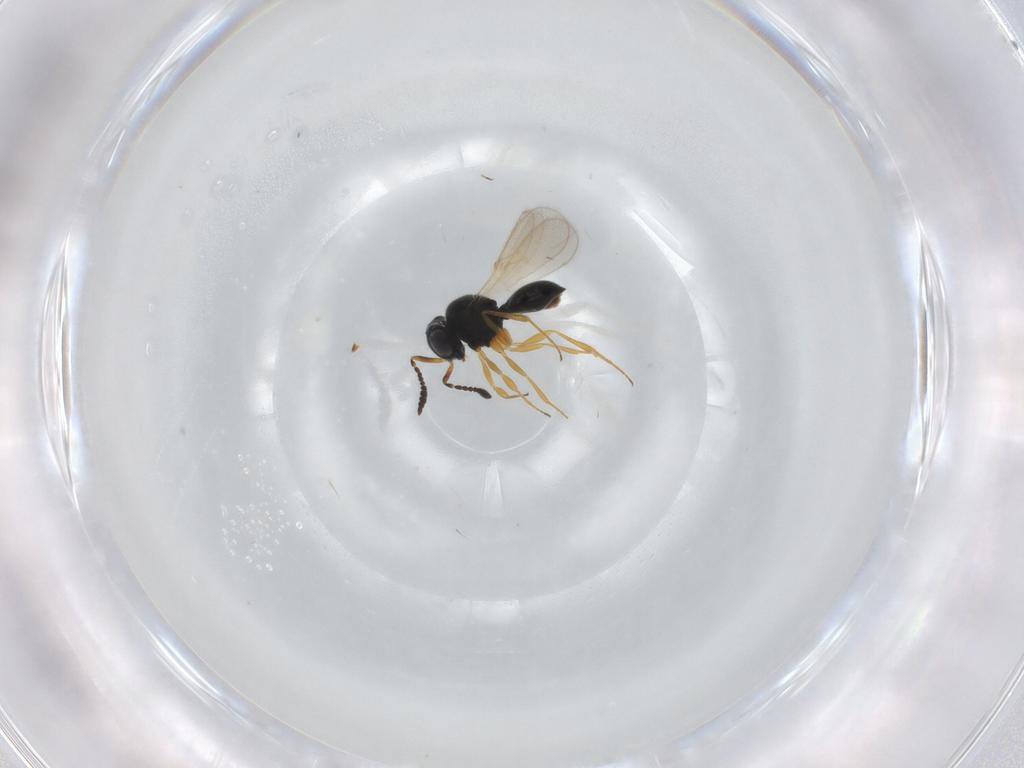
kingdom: Animalia
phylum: Arthropoda
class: Insecta
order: Hymenoptera
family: Scelionidae
